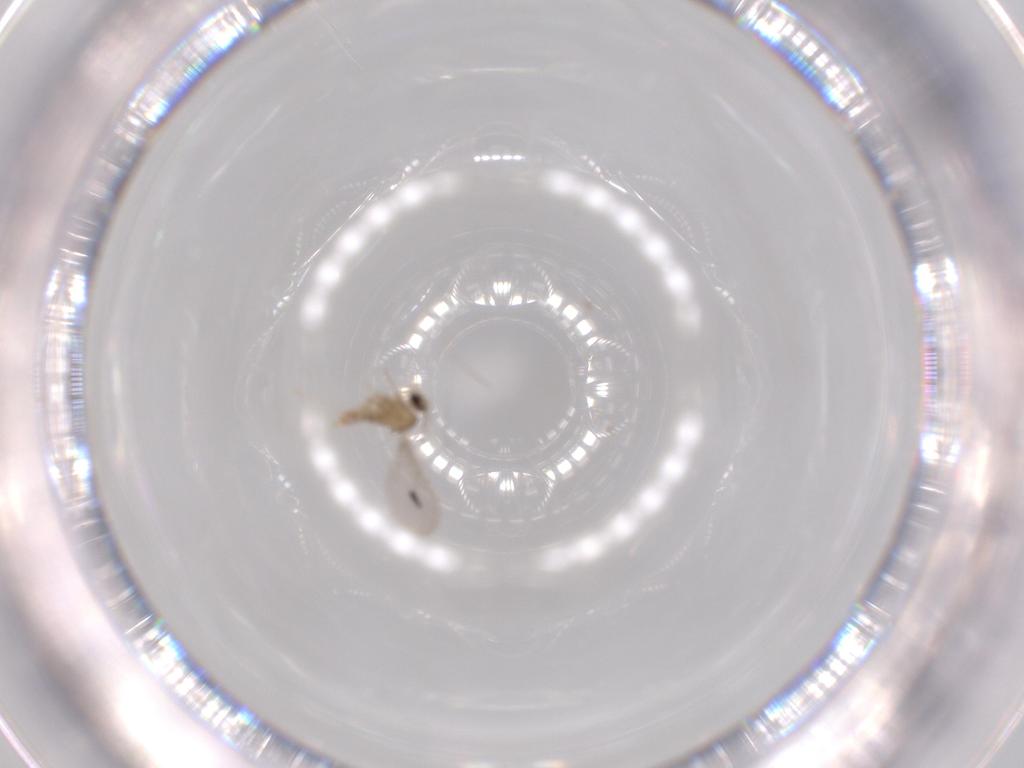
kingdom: Animalia
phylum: Arthropoda
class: Insecta
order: Diptera
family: Cecidomyiidae
